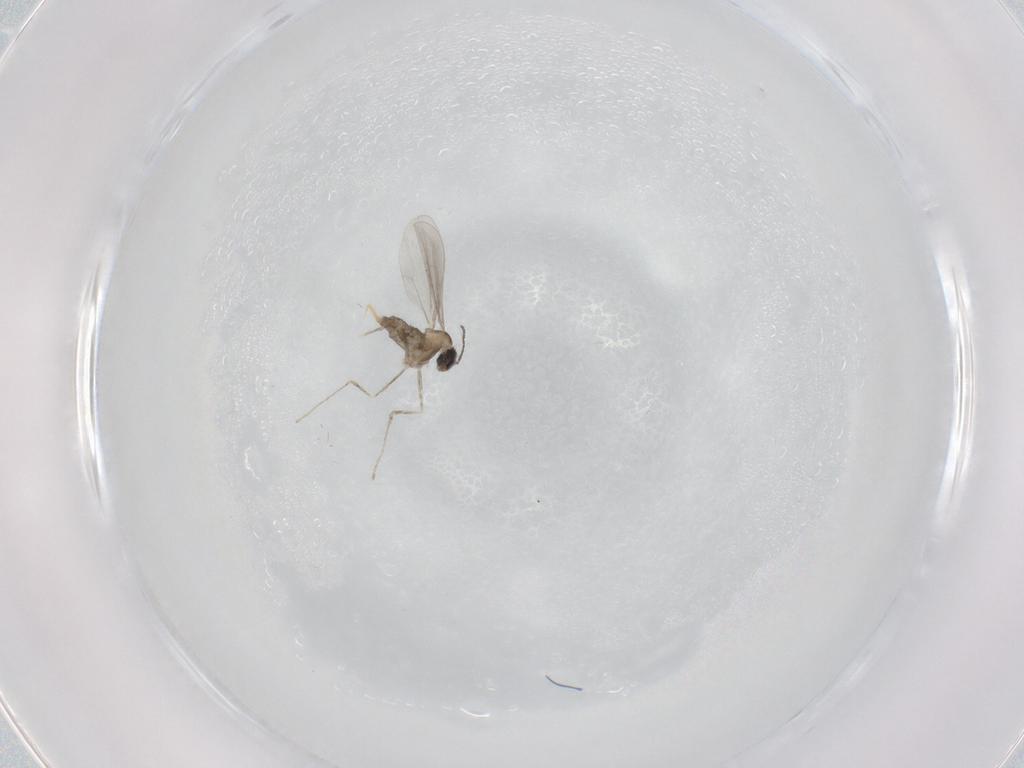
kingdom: Animalia
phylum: Arthropoda
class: Insecta
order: Diptera
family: Cecidomyiidae
